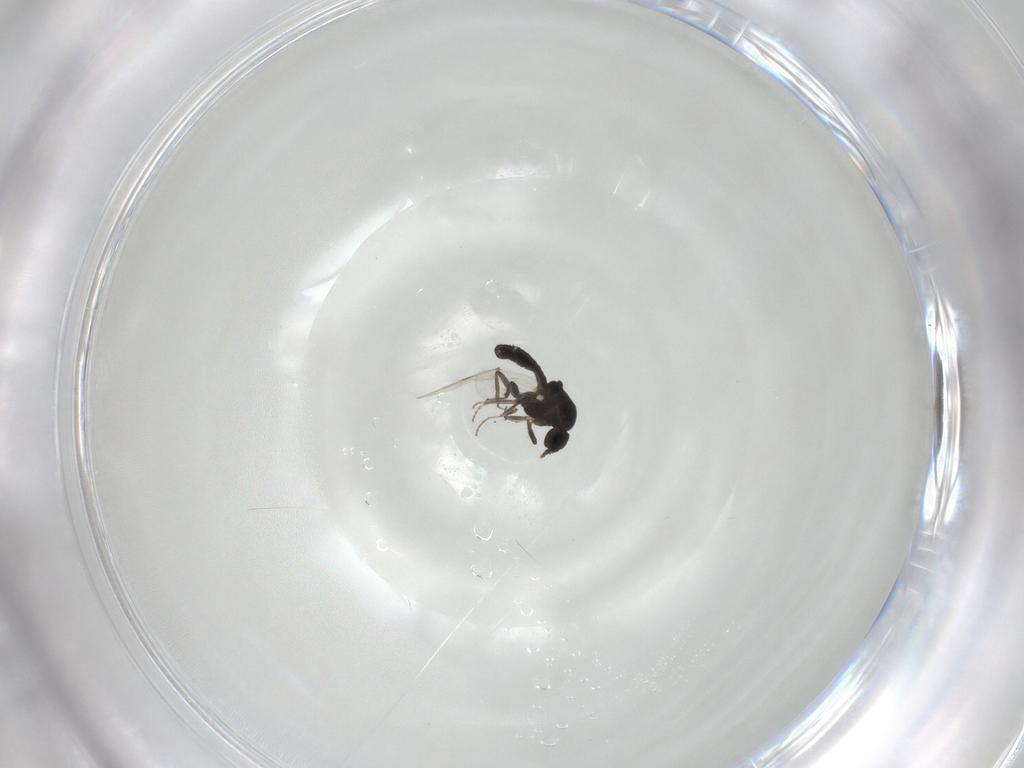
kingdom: Animalia
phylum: Arthropoda
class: Insecta
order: Diptera
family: Ceratopogonidae
